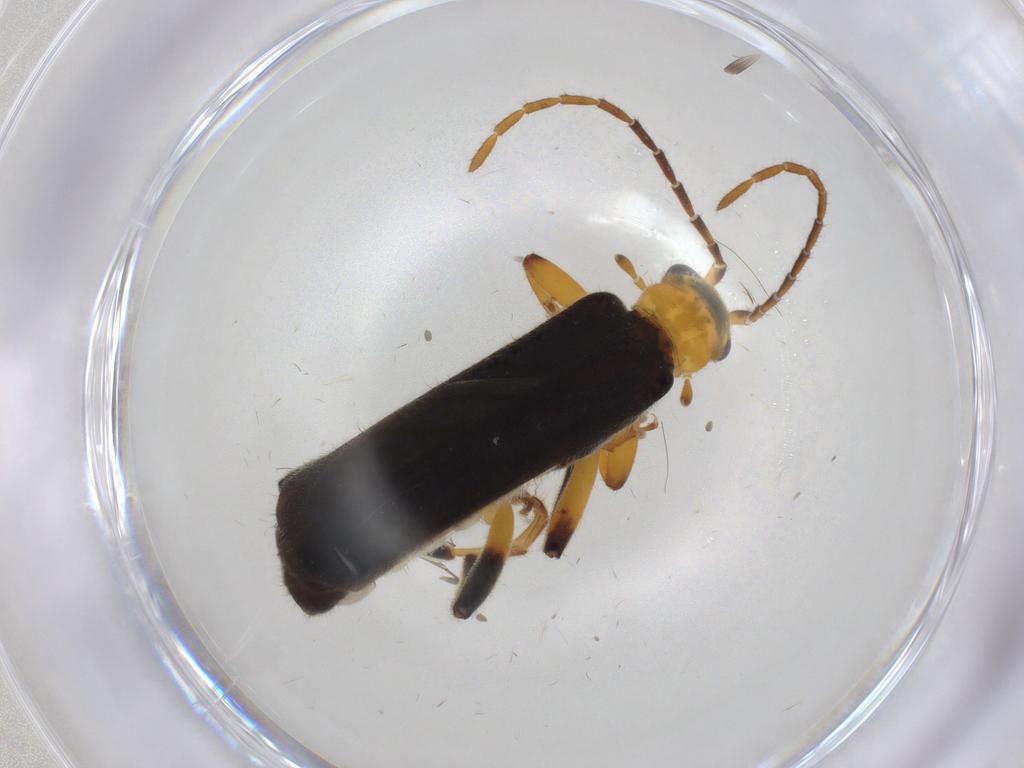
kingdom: Animalia
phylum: Arthropoda
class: Insecta
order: Coleoptera
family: Cantharidae
